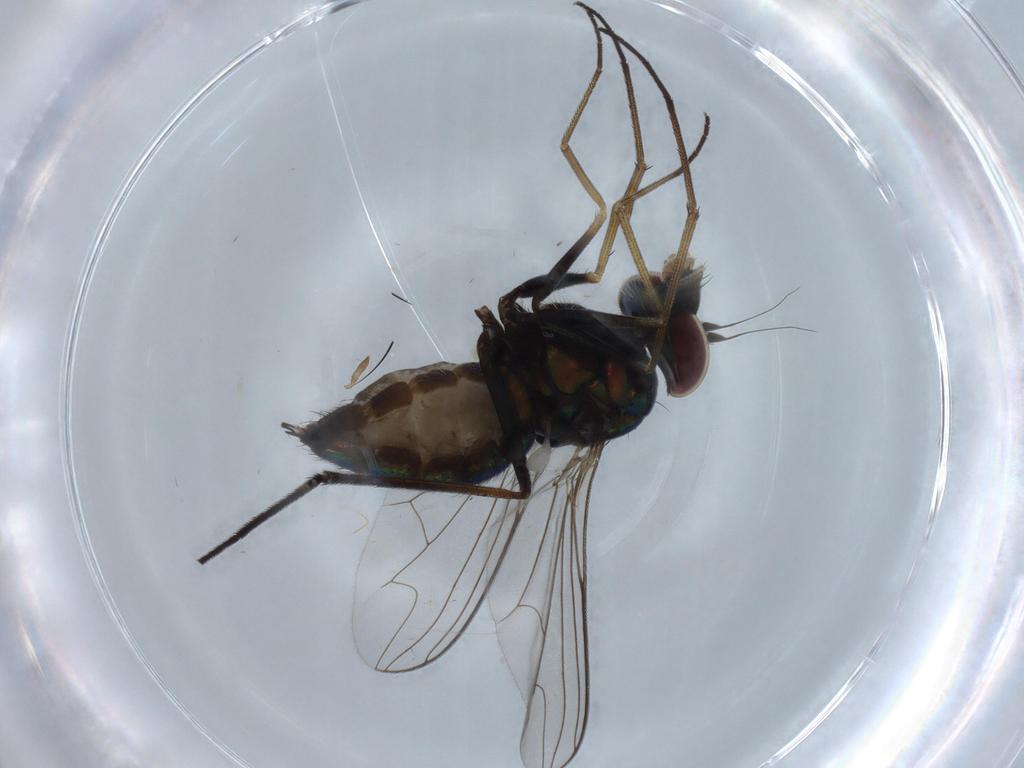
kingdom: Animalia
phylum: Arthropoda
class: Insecta
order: Diptera
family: Dolichopodidae
